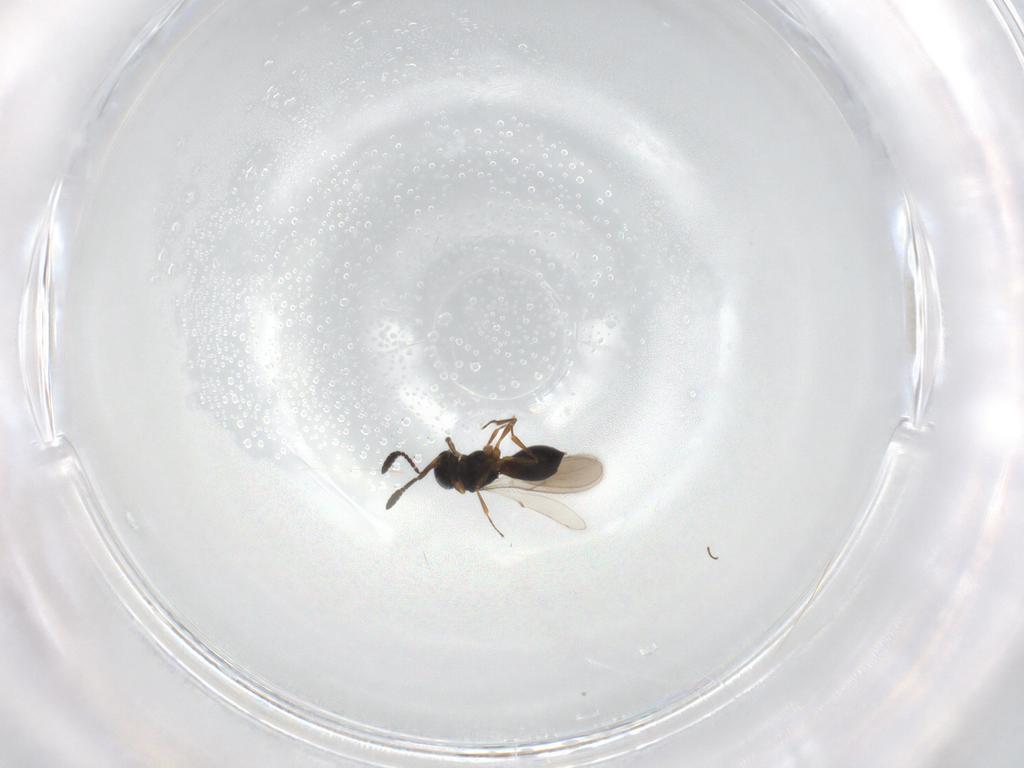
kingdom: Animalia
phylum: Arthropoda
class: Insecta
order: Hymenoptera
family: Scelionidae
